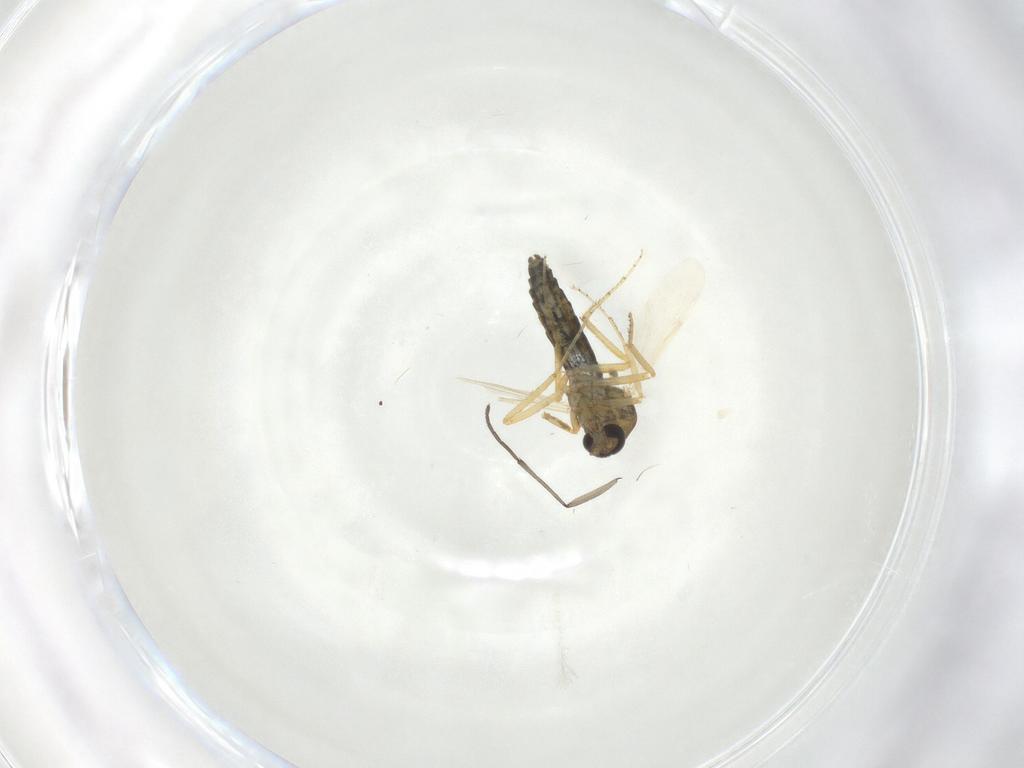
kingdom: Animalia
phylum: Arthropoda
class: Insecta
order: Diptera
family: Ceratopogonidae
